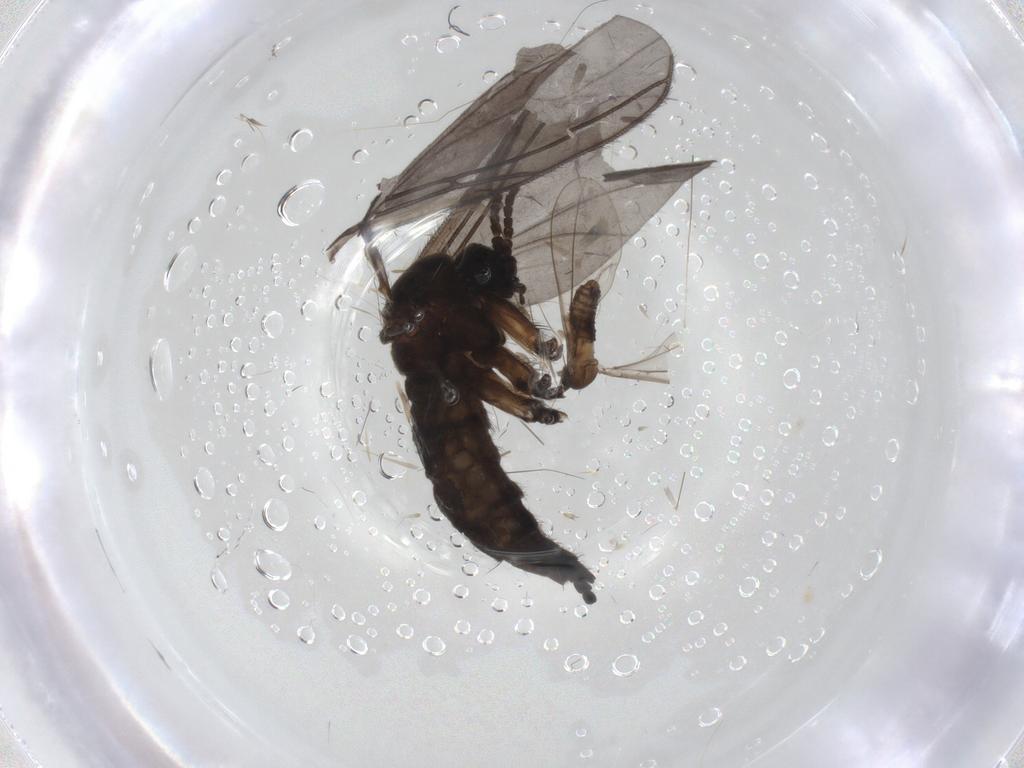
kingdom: Animalia
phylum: Arthropoda
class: Insecta
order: Diptera
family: Sciaridae
